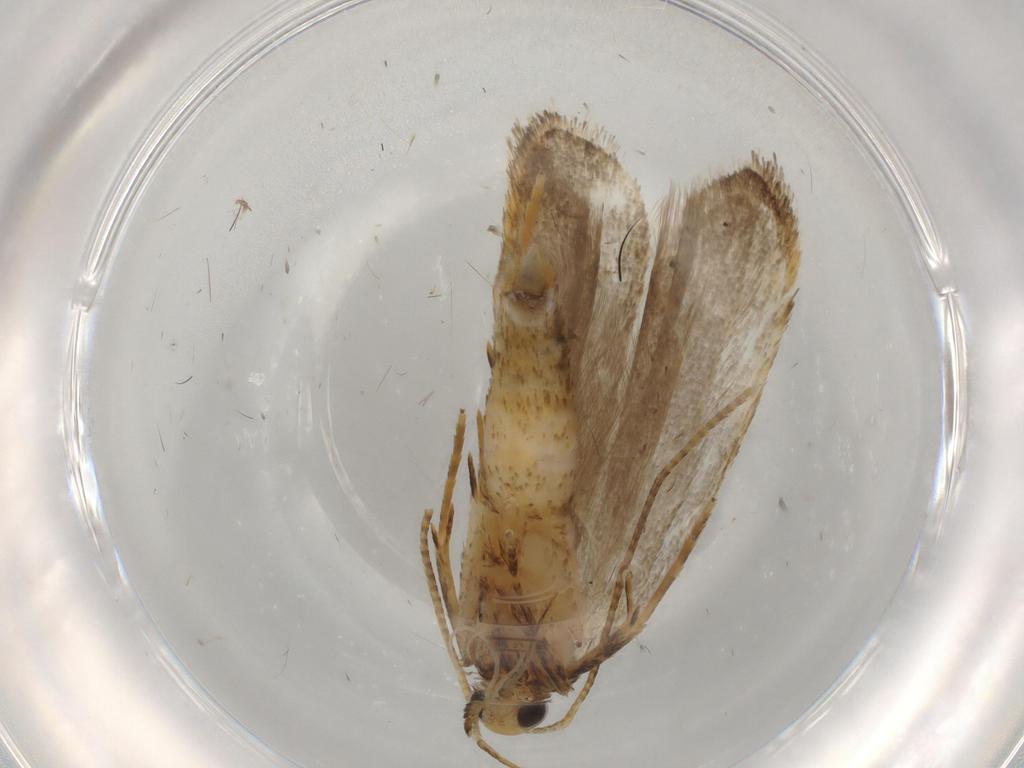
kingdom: Animalia
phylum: Arthropoda
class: Insecta
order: Lepidoptera
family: Autostichidae
